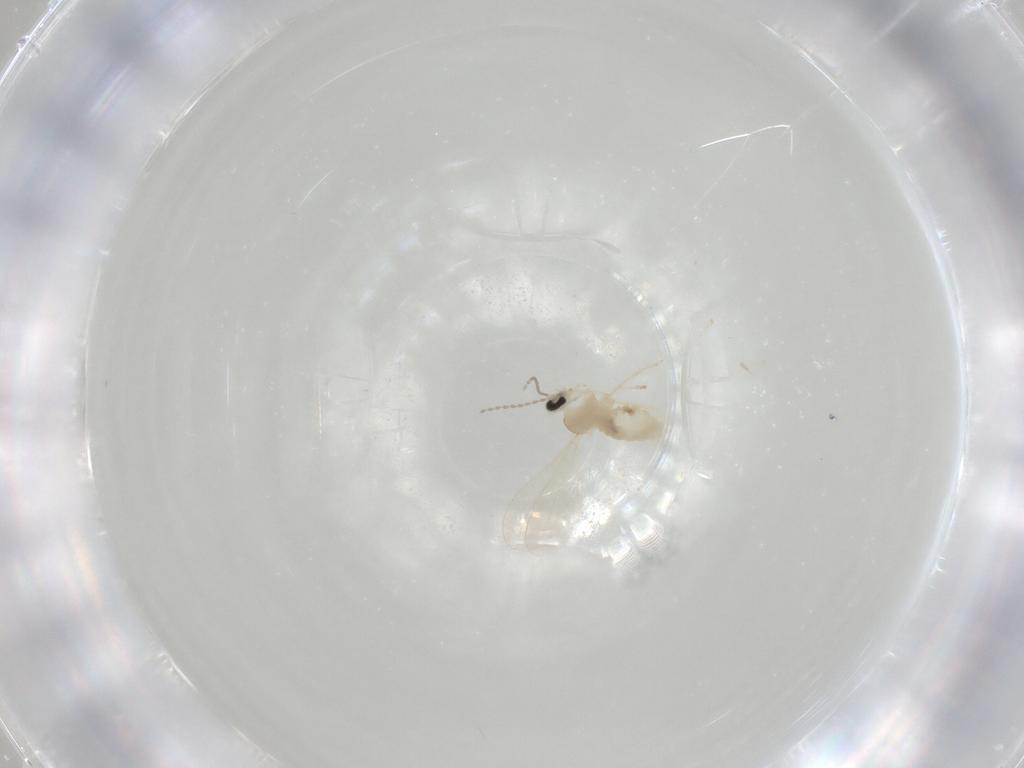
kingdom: Animalia
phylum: Arthropoda
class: Insecta
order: Diptera
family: Cecidomyiidae
